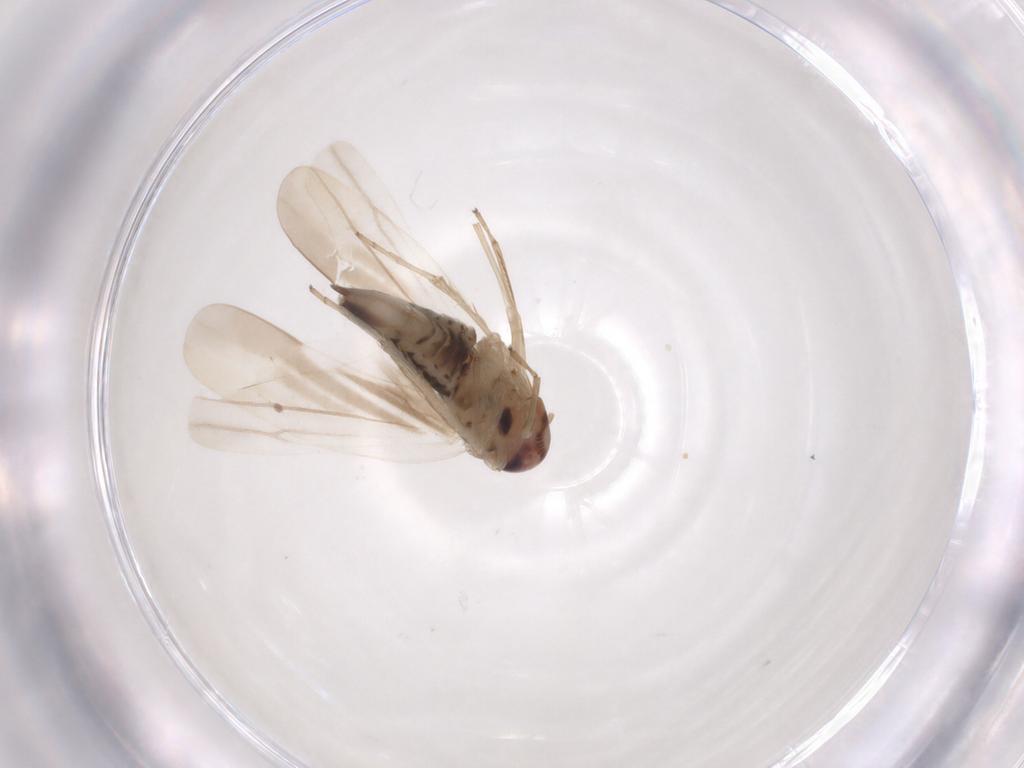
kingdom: Animalia
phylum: Arthropoda
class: Insecta
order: Hemiptera
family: Cicadellidae
